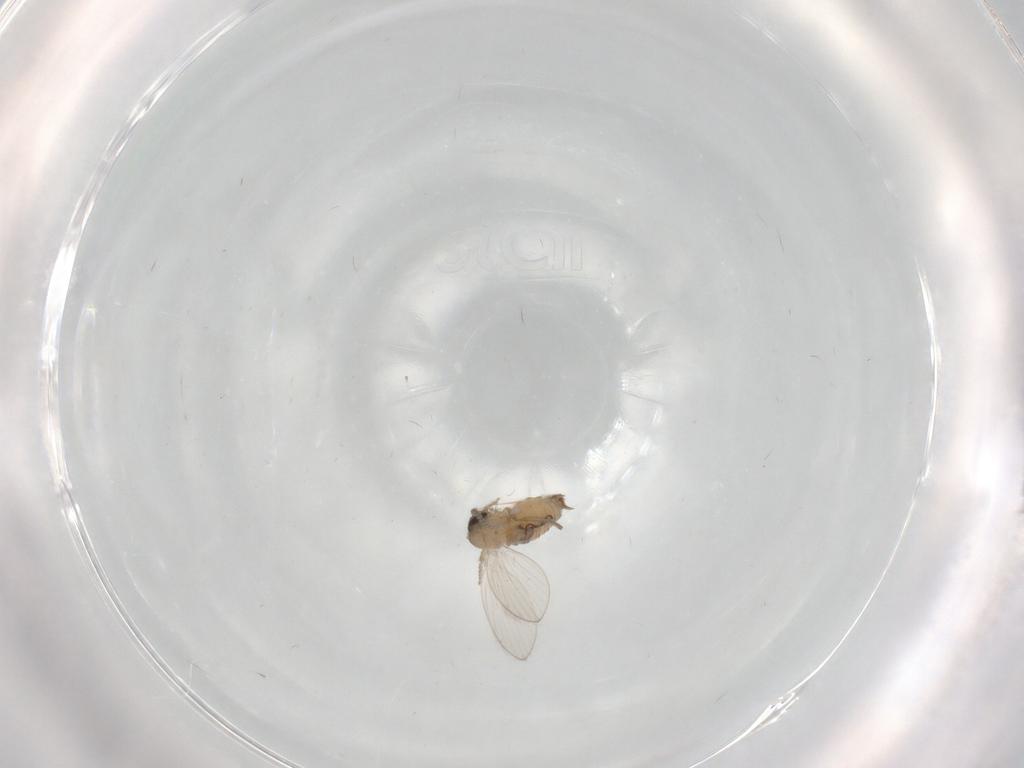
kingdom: Animalia
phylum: Arthropoda
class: Insecta
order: Diptera
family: Psychodidae
